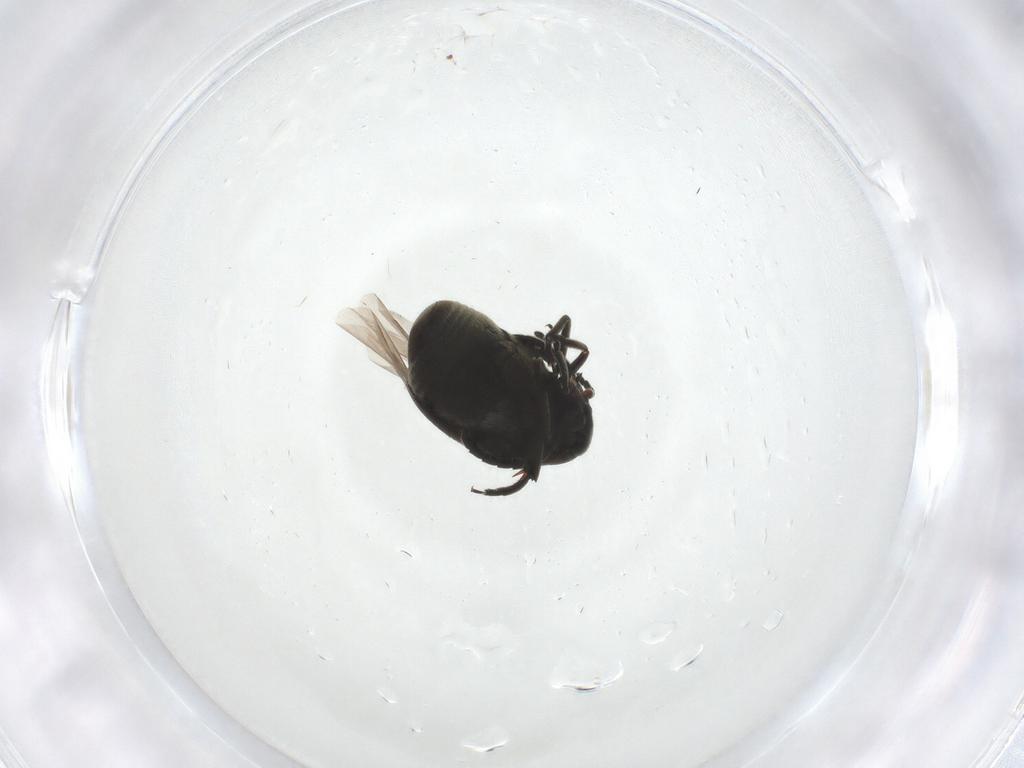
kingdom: Animalia
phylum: Arthropoda
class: Insecta
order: Coleoptera
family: Chrysomelidae
